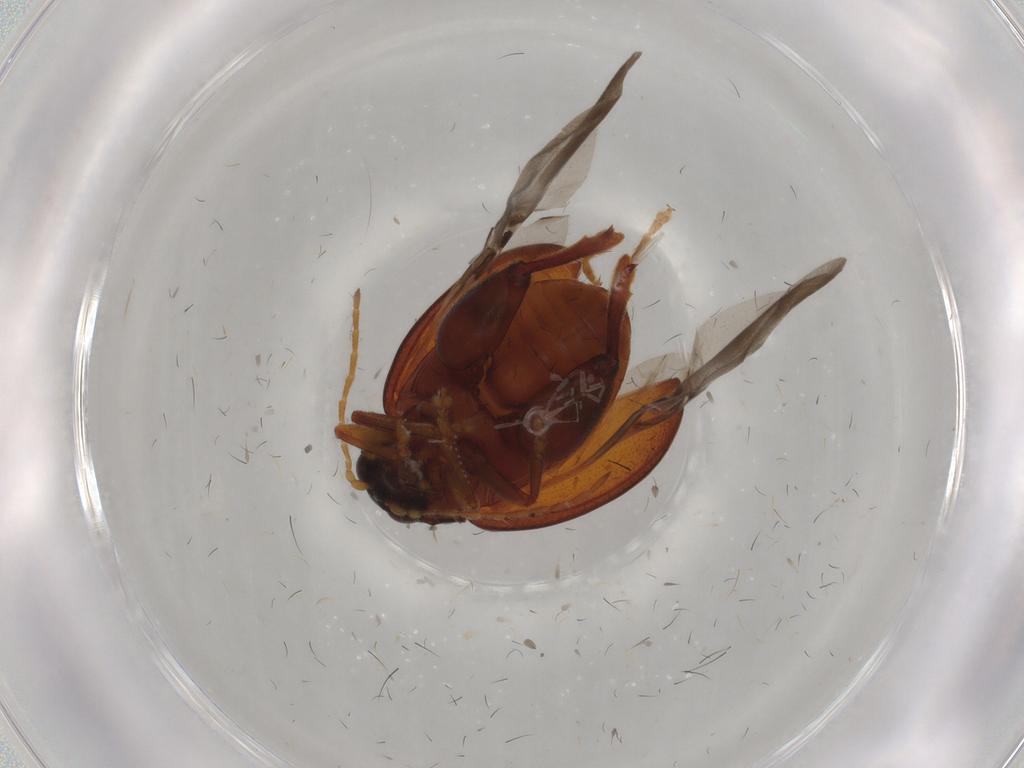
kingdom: Animalia
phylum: Arthropoda
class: Insecta
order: Coleoptera
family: Chrysomelidae
